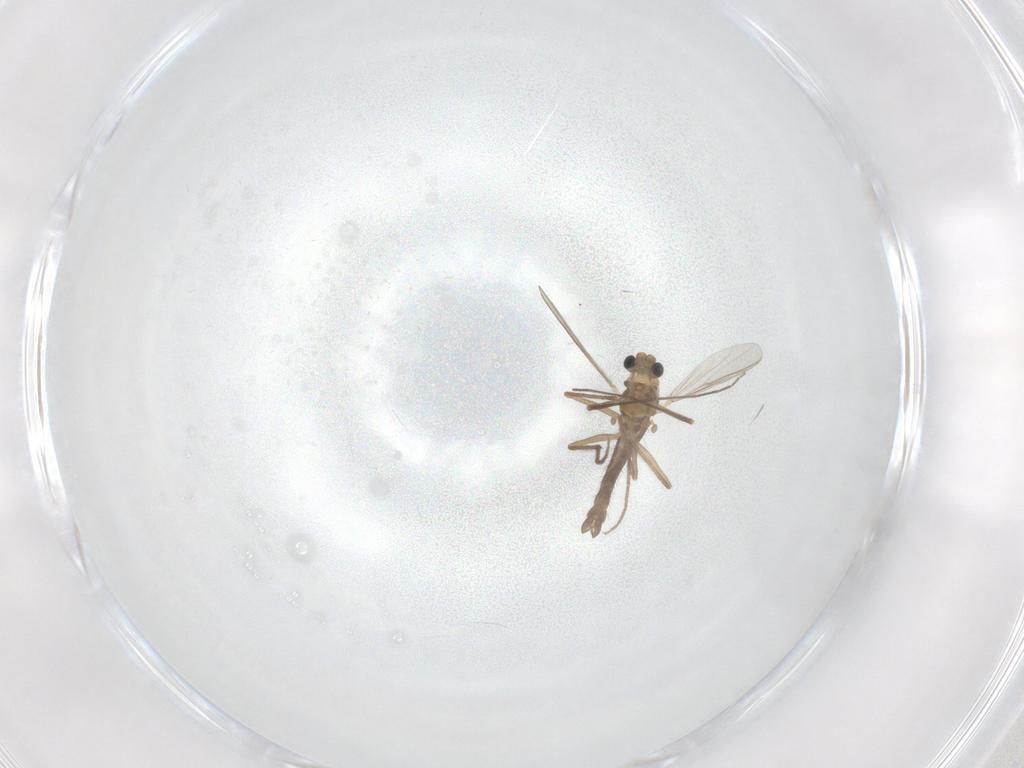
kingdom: Animalia
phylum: Arthropoda
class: Insecta
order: Diptera
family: Chironomidae
